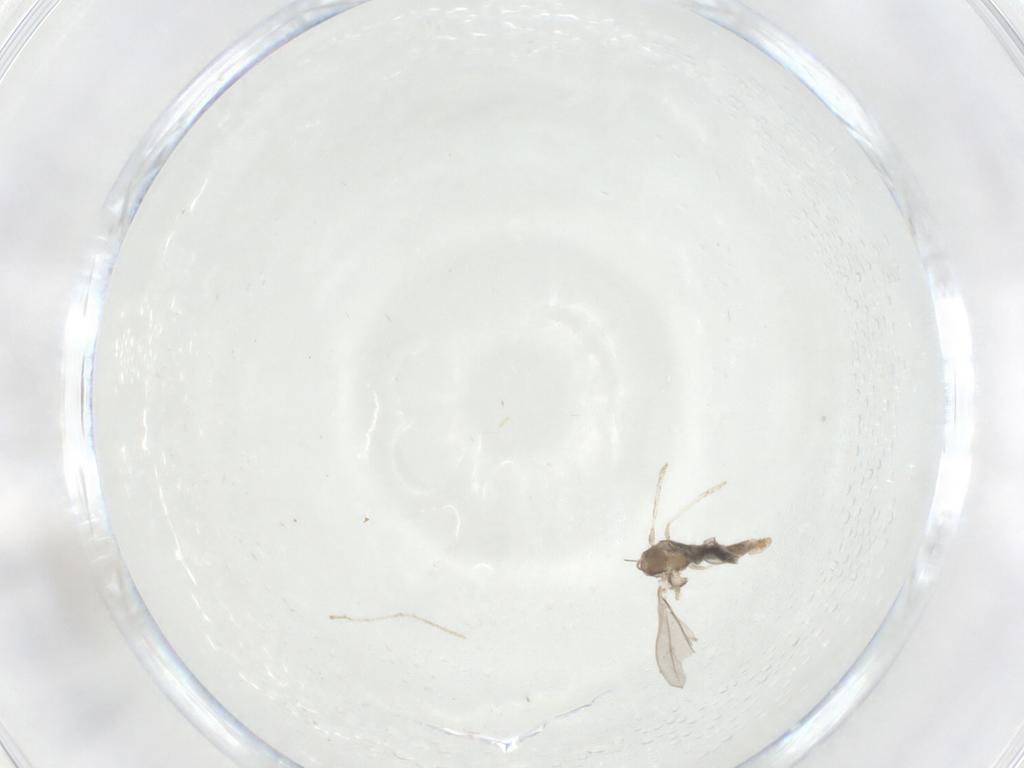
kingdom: Animalia
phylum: Arthropoda
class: Insecta
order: Diptera
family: Cecidomyiidae
